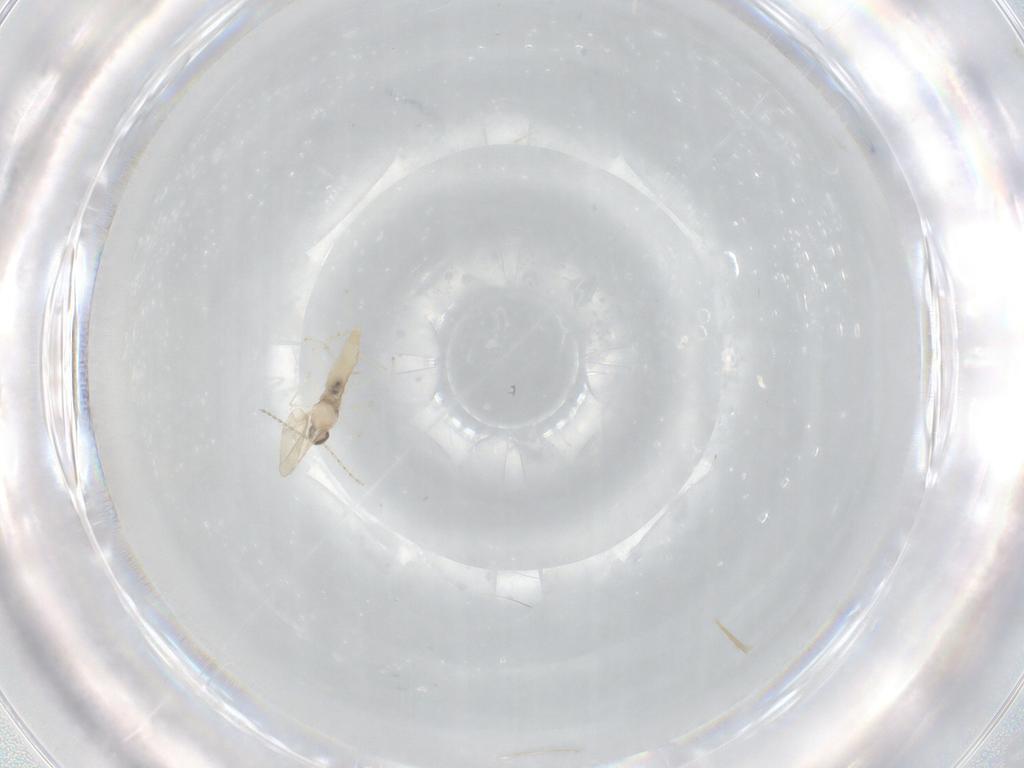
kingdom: Animalia
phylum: Arthropoda
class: Insecta
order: Diptera
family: Cecidomyiidae
